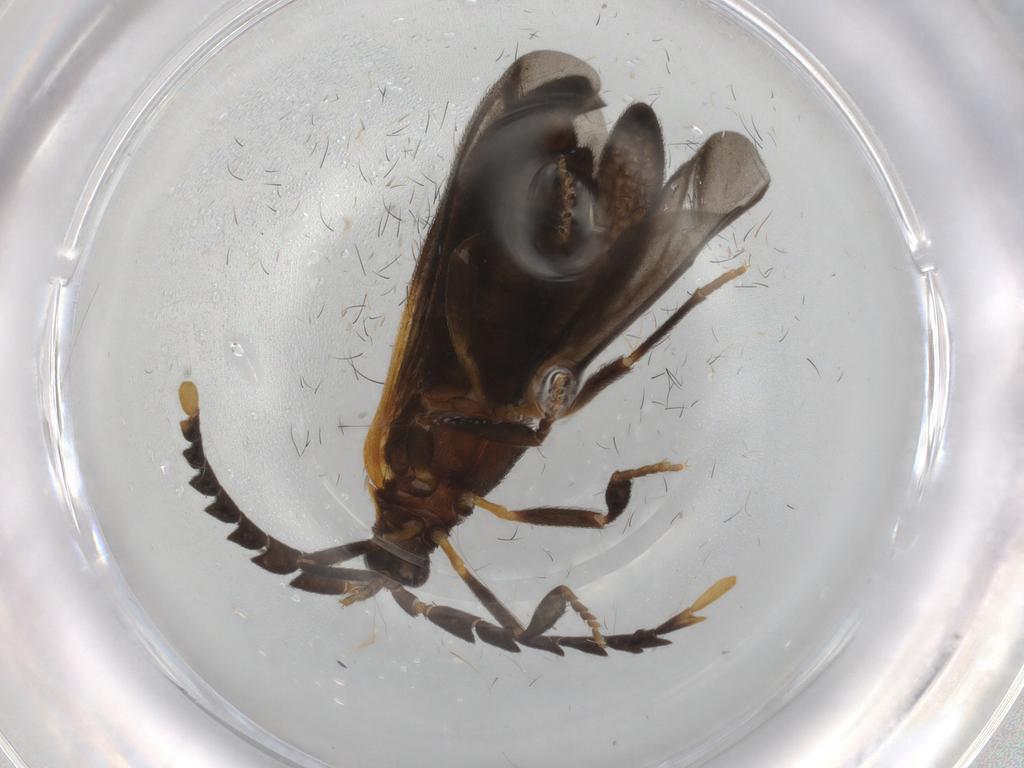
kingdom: Animalia
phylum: Arthropoda
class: Insecta
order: Coleoptera
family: Lycidae
